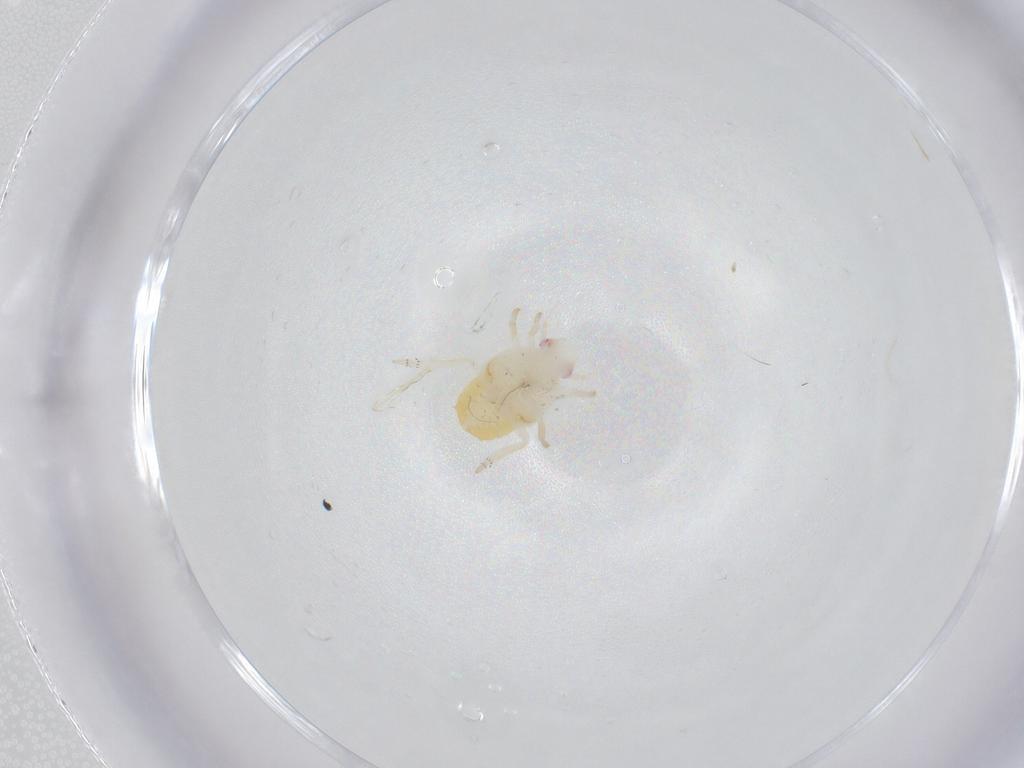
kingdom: Animalia
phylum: Arthropoda
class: Insecta
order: Hemiptera
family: Fulgoroidea_incertae_sedis
